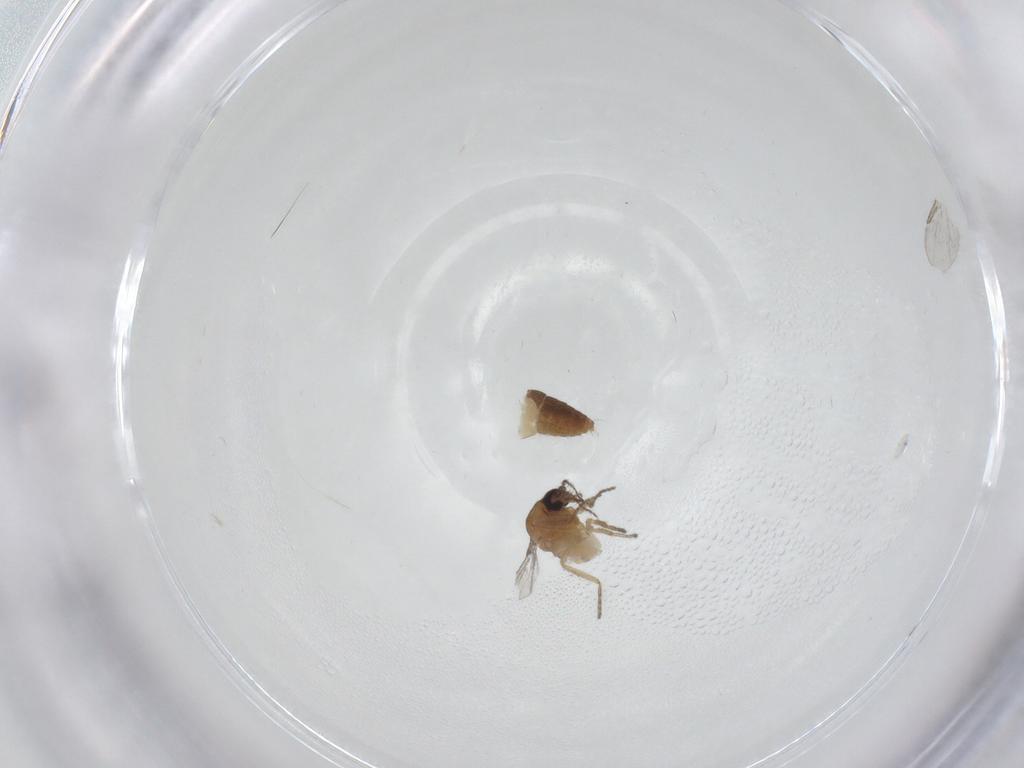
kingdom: Animalia
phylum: Arthropoda
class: Insecta
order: Diptera
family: Ceratopogonidae
